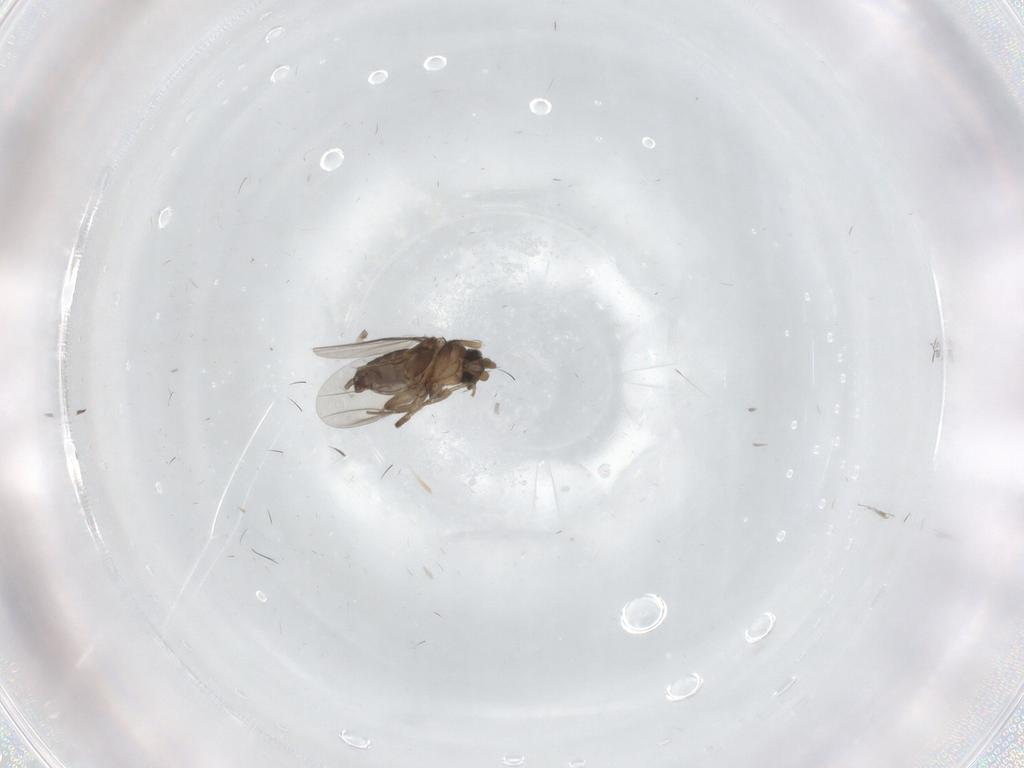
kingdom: Animalia
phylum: Arthropoda
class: Insecta
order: Diptera
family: Phoridae
